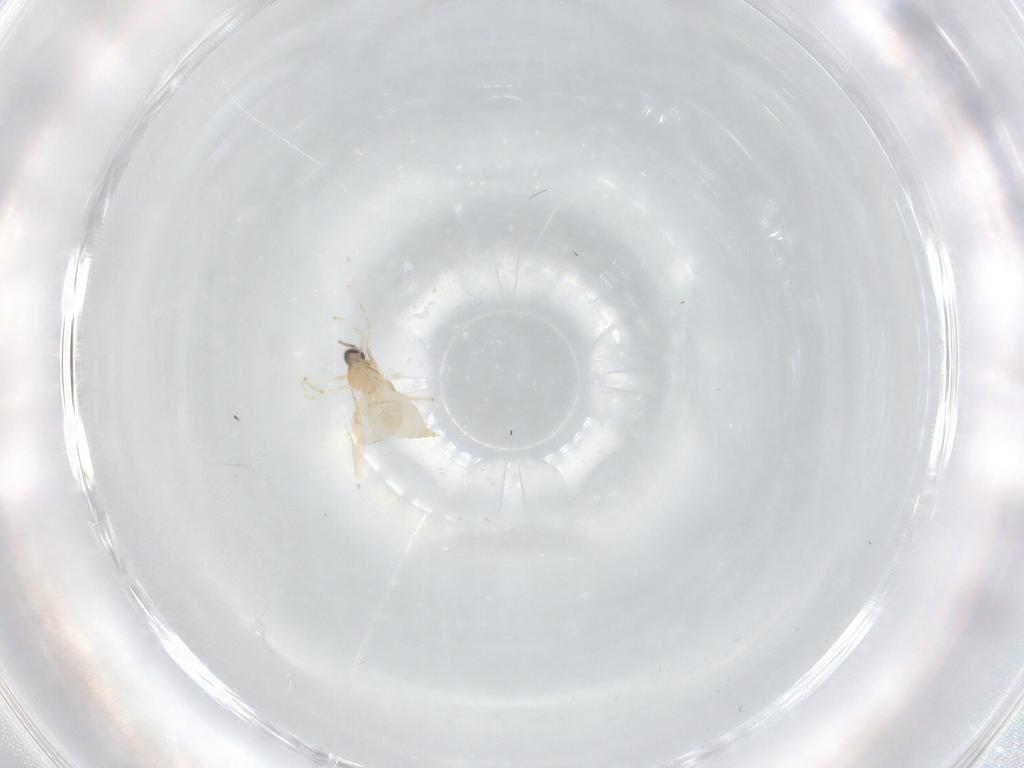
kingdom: Animalia
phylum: Arthropoda
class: Insecta
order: Diptera
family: Cecidomyiidae
